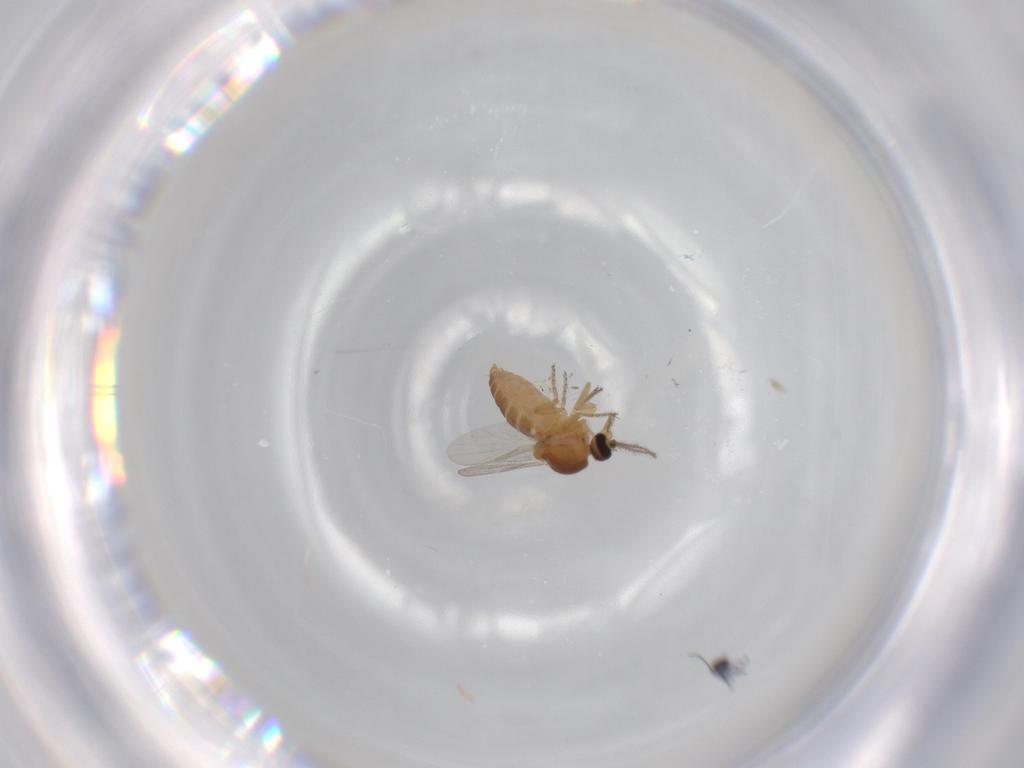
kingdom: Animalia
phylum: Arthropoda
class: Insecta
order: Diptera
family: Ceratopogonidae
